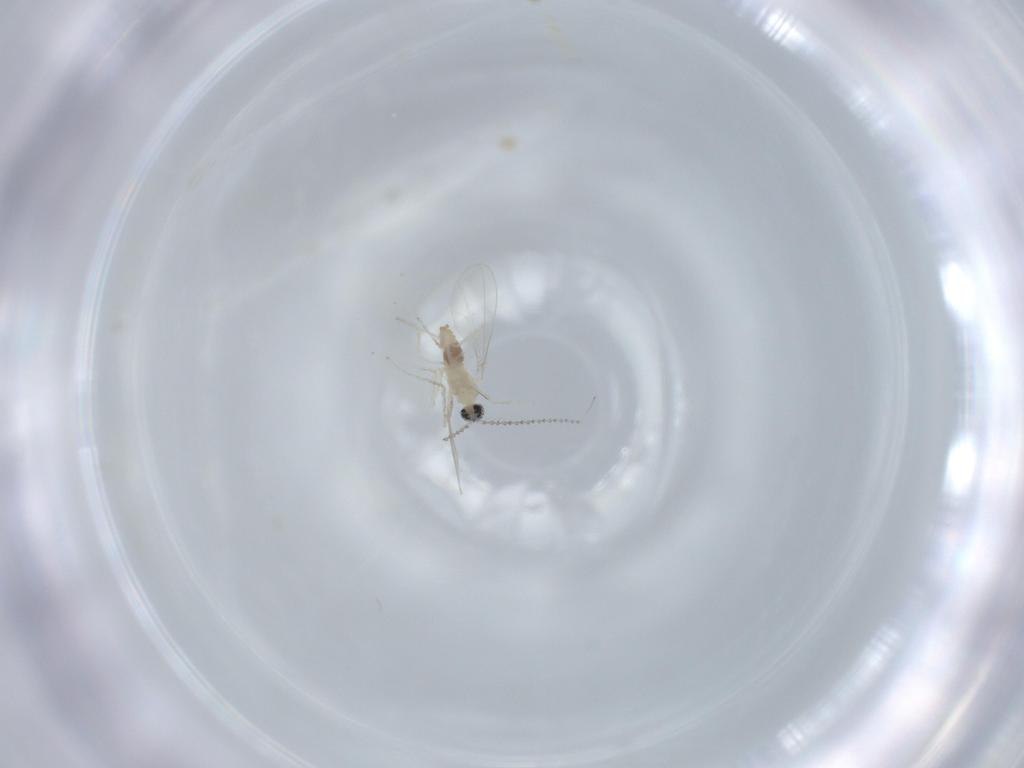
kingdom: Animalia
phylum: Arthropoda
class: Insecta
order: Diptera
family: Cecidomyiidae
